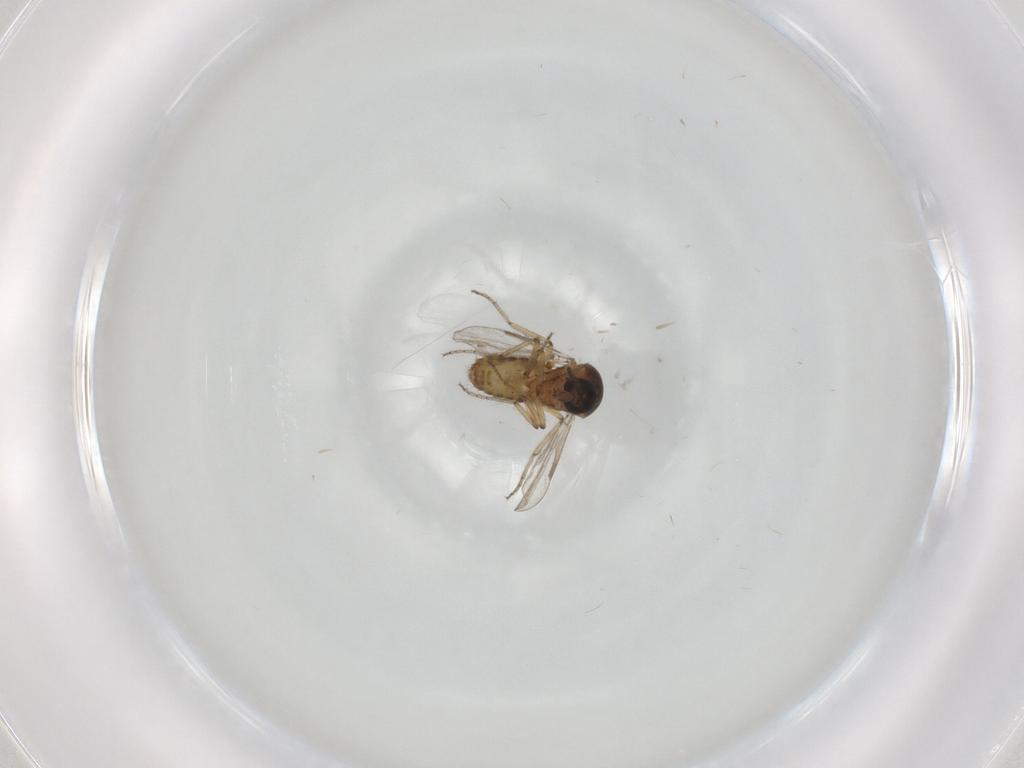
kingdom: Animalia
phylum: Arthropoda
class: Insecta
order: Diptera
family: Ceratopogonidae
